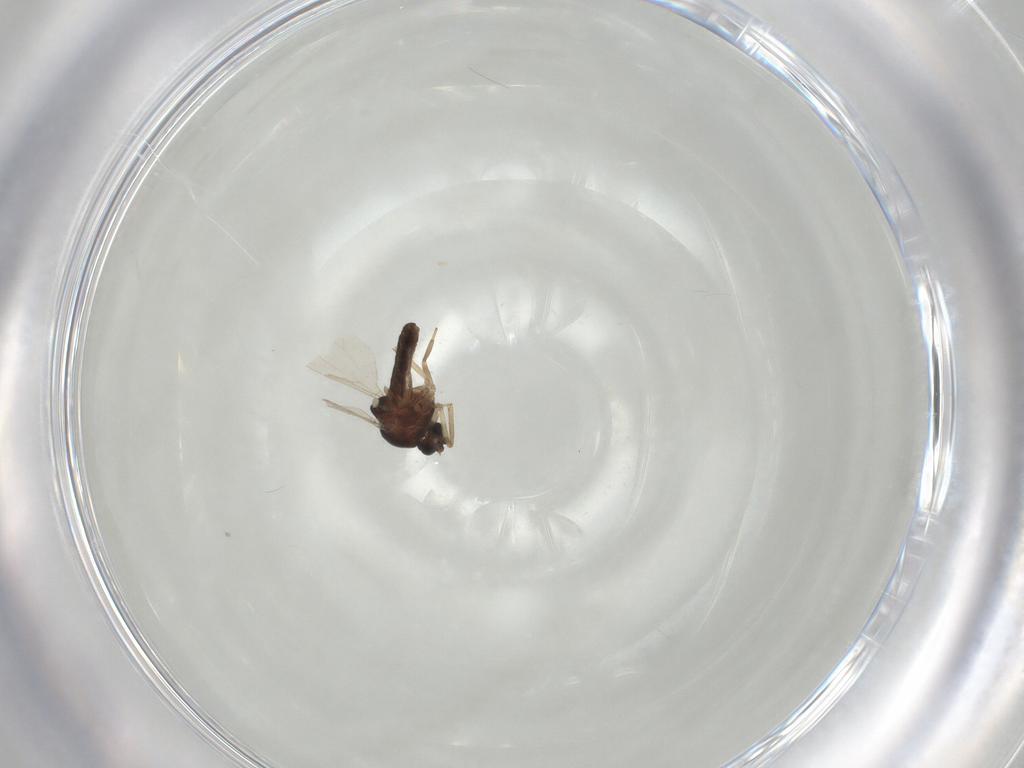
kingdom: Animalia
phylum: Arthropoda
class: Insecta
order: Diptera
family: Ceratopogonidae
